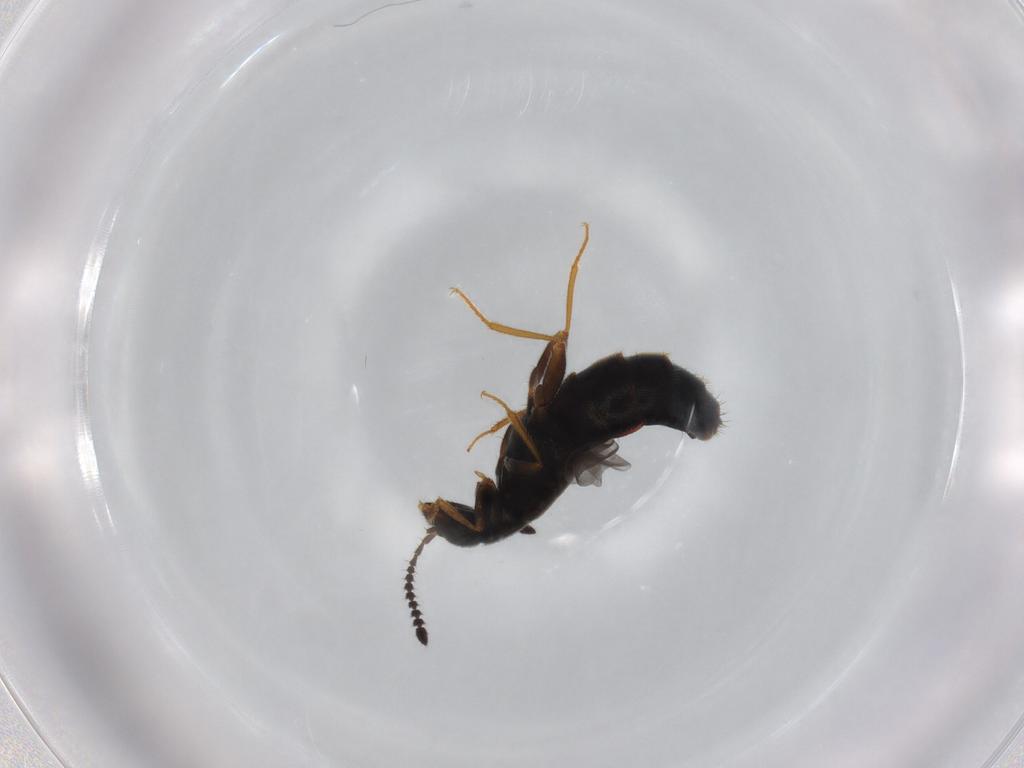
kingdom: Animalia
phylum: Arthropoda
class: Insecta
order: Coleoptera
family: Staphylinidae
